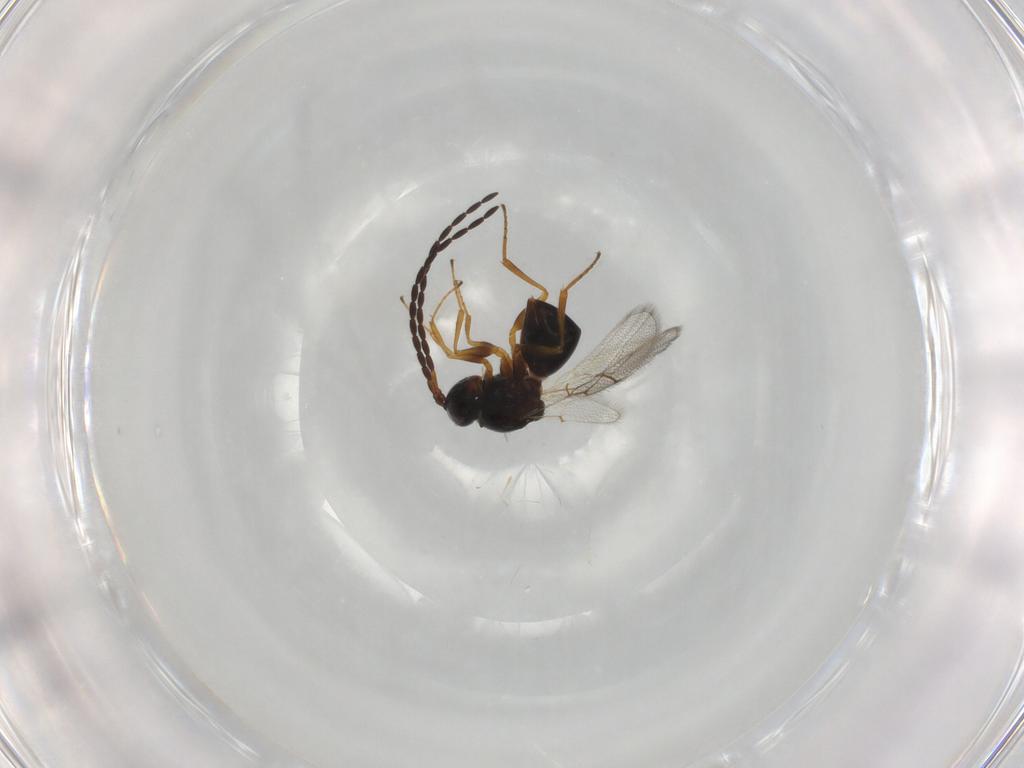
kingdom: Animalia
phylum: Arthropoda
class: Insecta
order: Hymenoptera
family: Figitidae
